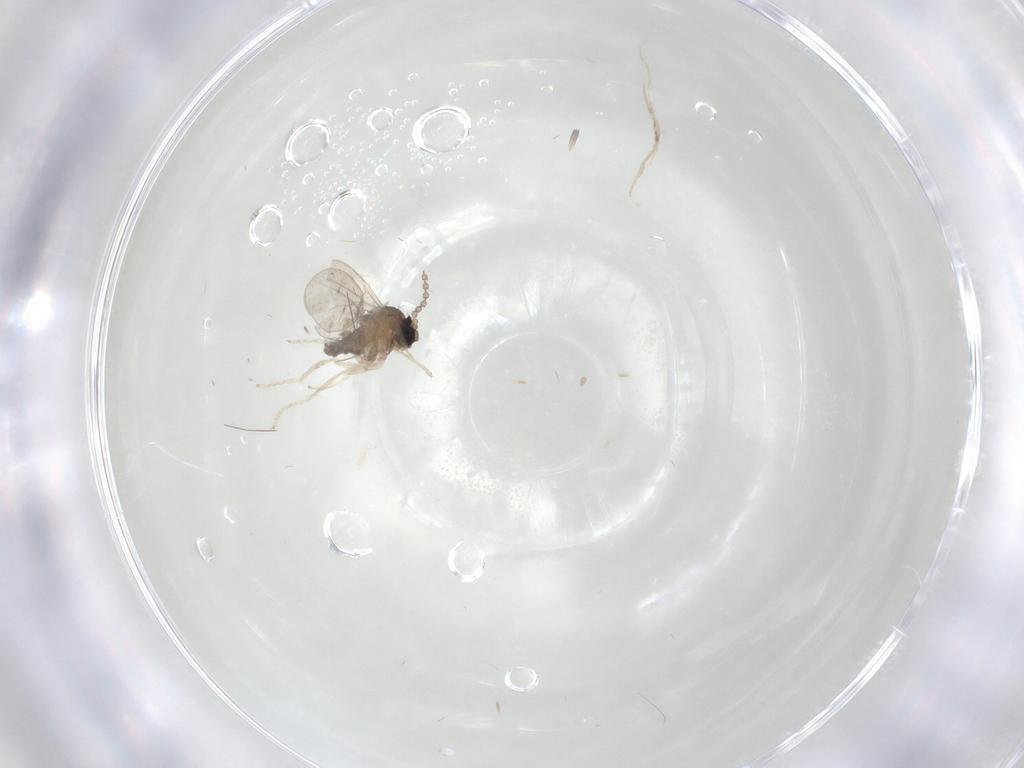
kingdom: Animalia
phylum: Arthropoda
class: Insecta
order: Diptera
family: Cecidomyiidae
